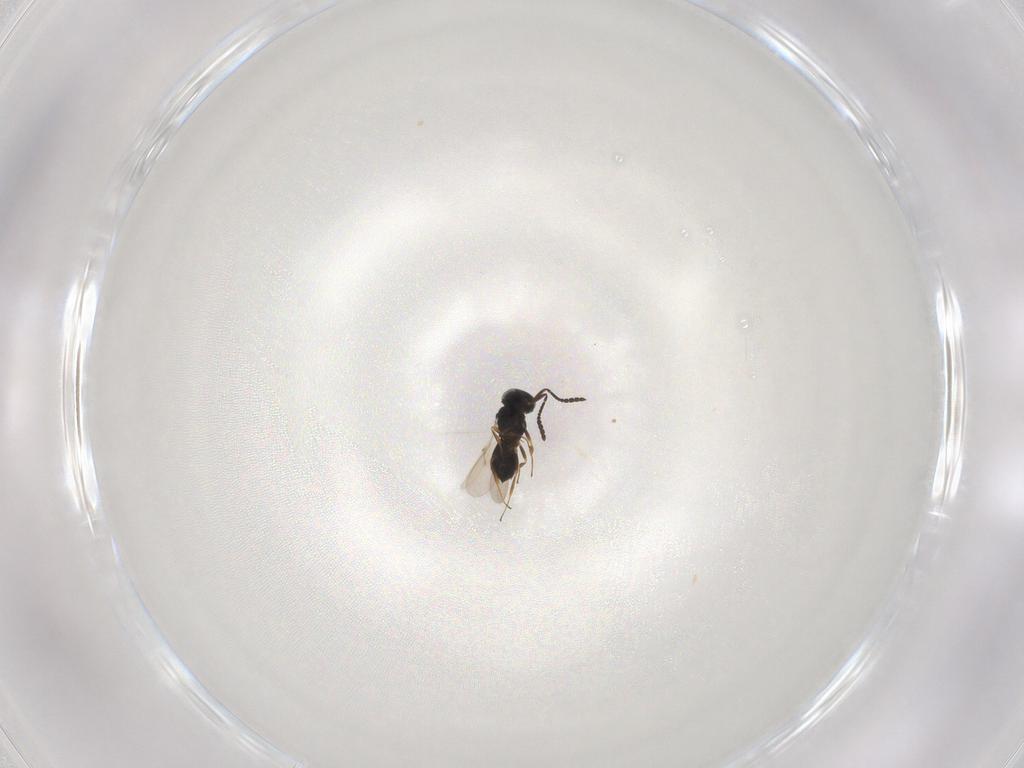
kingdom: Animalia
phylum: Arthropoda
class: Insecta
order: Hymenoptera
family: Scelionidae
